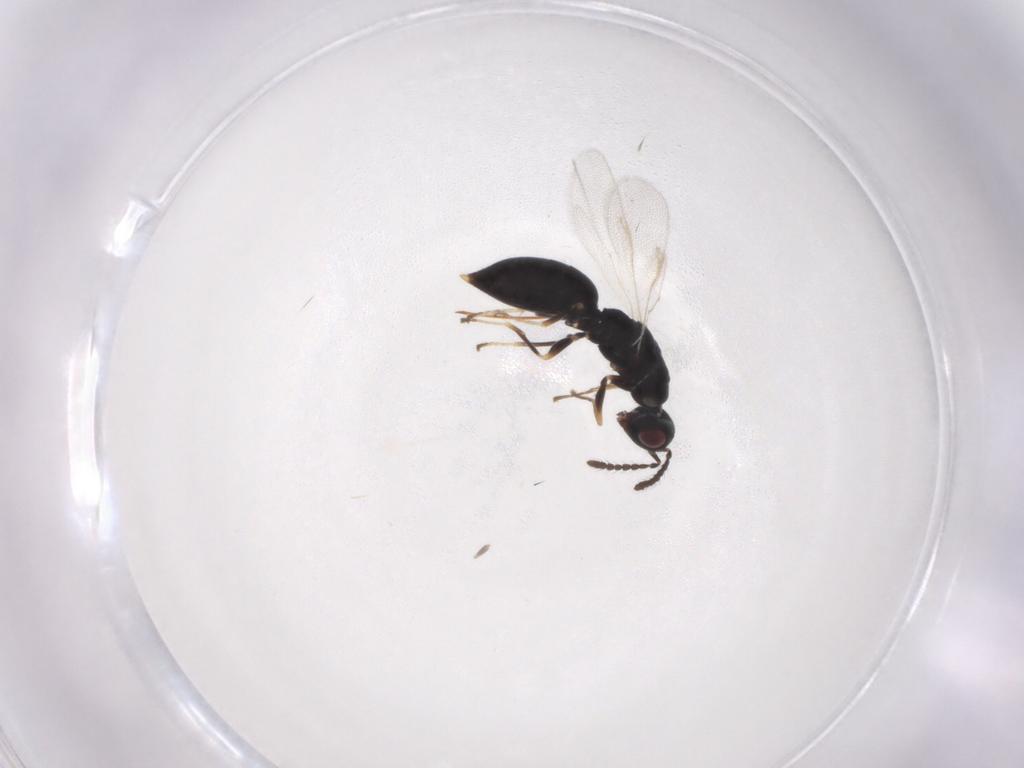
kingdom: Animalia
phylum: Arthropoda
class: Insecta
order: Hymenoptera
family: Eurytomidae
